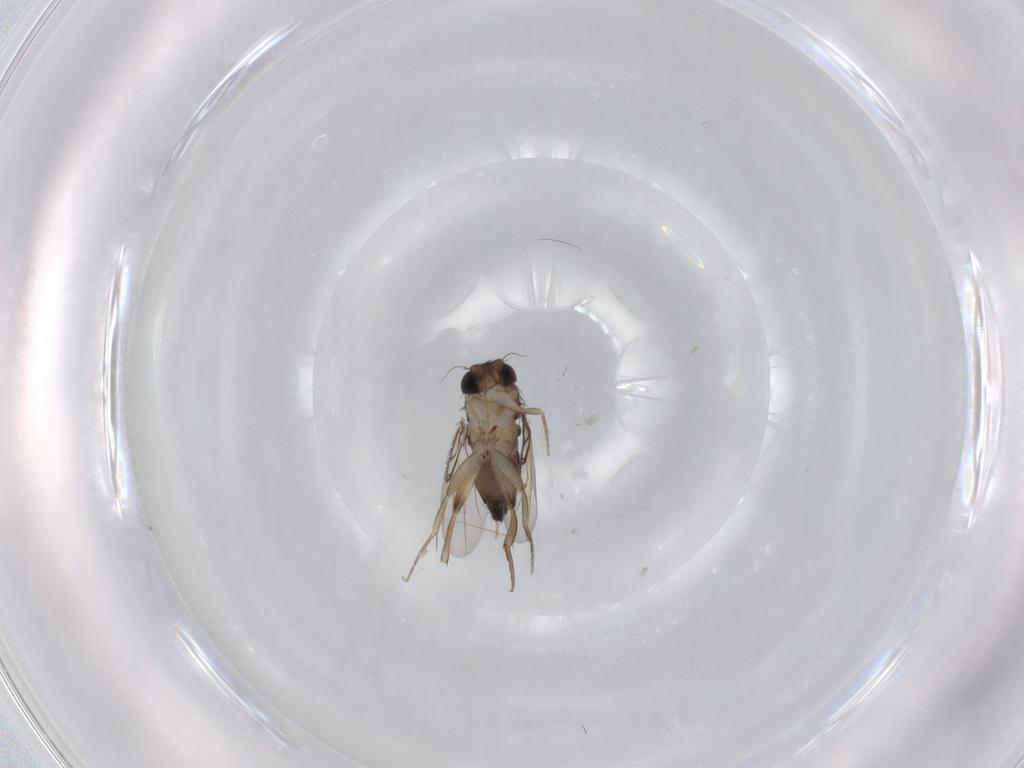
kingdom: Animalia
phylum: Arthropoda
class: Insecta
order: Diptera
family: Phoridae
